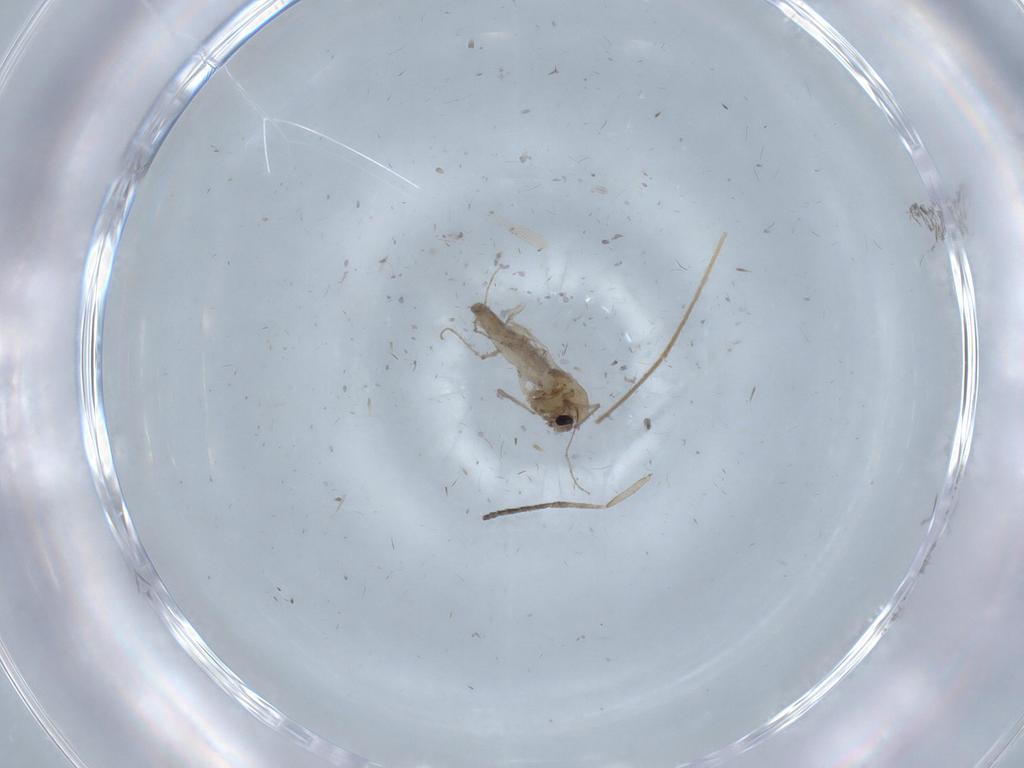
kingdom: Animalia
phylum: Arthropoda
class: Insecta
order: Diptera
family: Chironomidae
